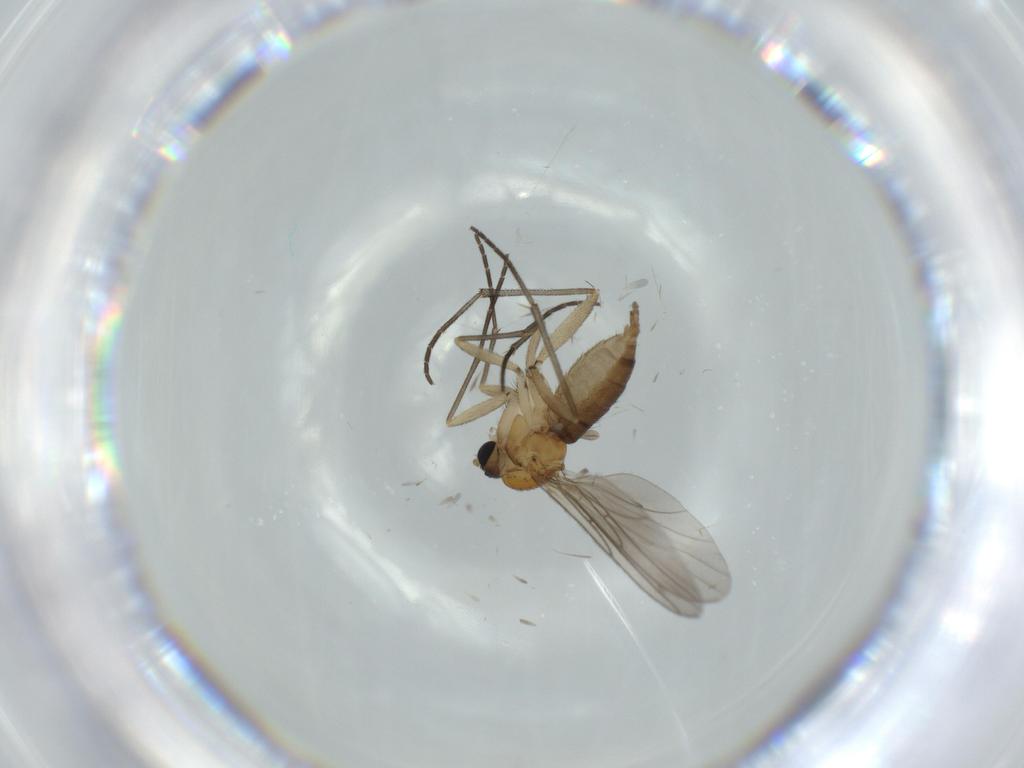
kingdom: Animalia
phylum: Arthropoda
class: Insecta
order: Diptera
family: Sciaridae
